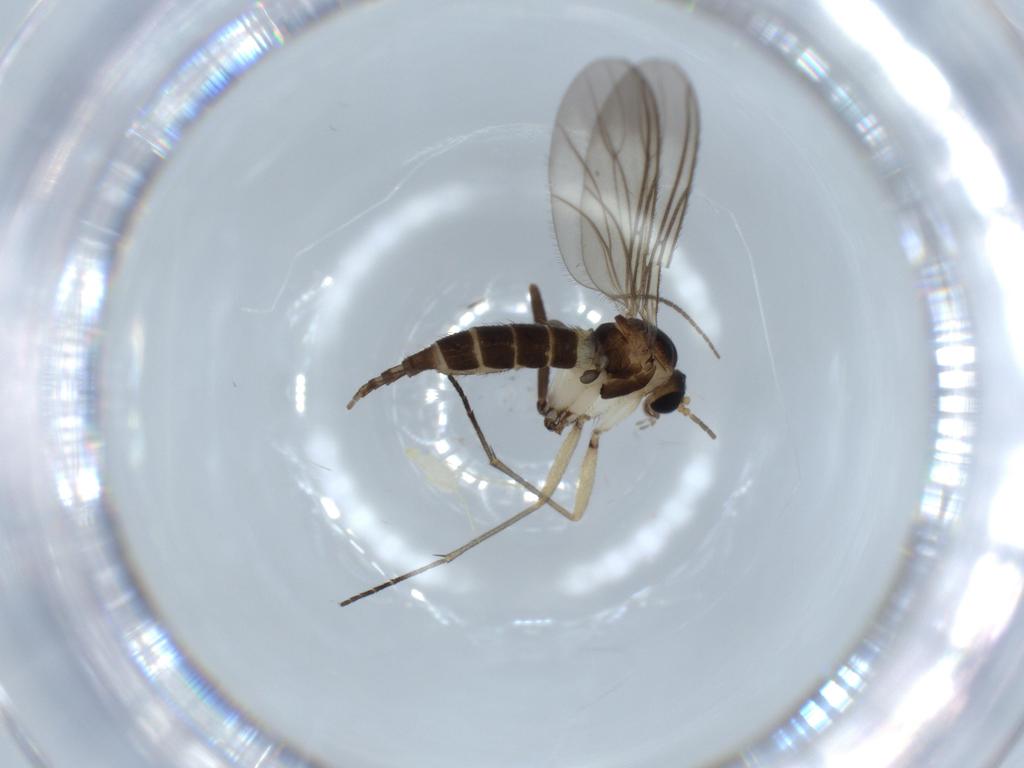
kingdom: Animalia
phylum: Arthropoda
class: Insecta
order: Diptera
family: Sciaridae
